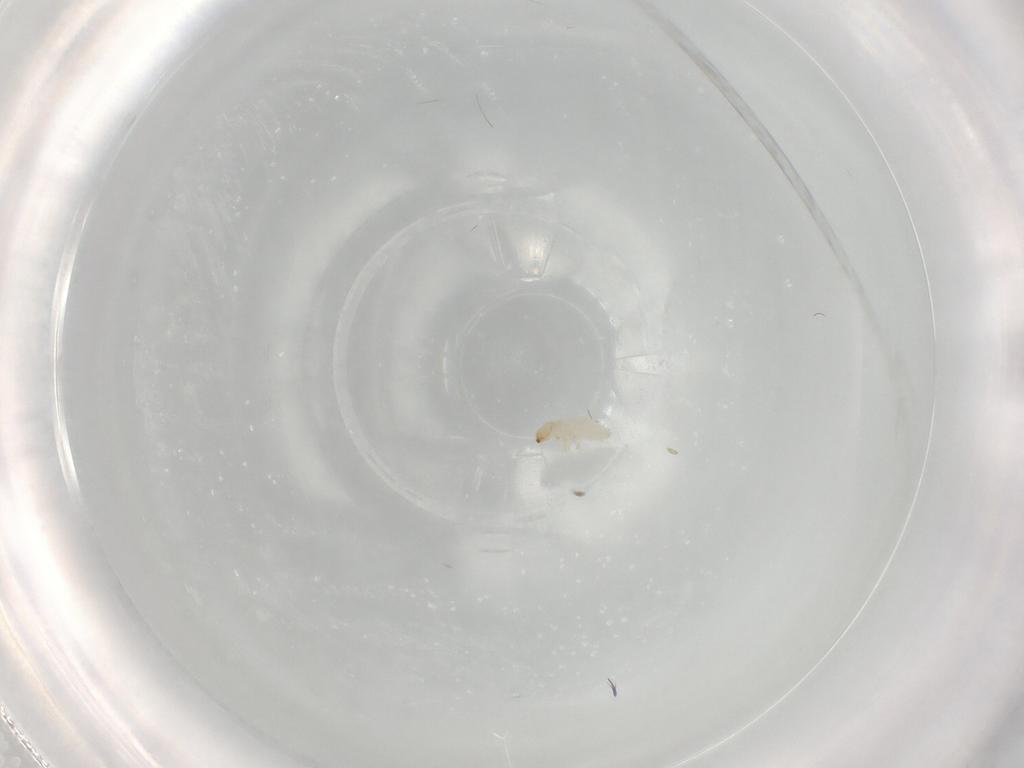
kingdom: Animalia
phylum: Arthropoda
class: Insecta
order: Coleoptera
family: Chrysomelidae
